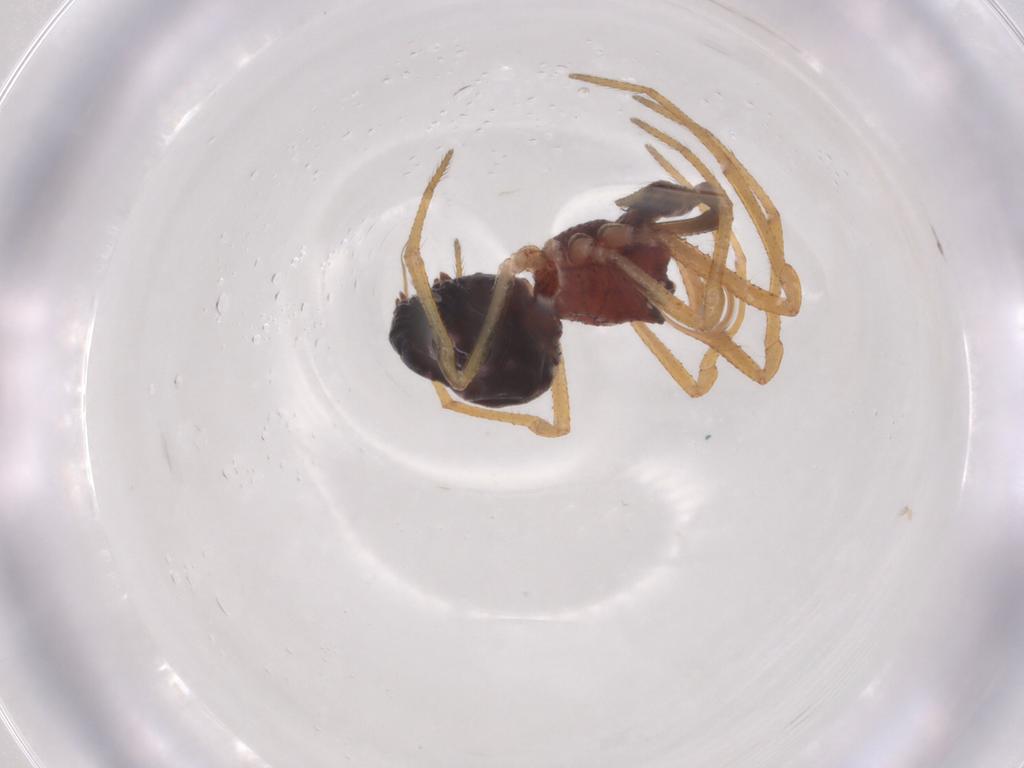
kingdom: Animalia
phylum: Arthropoda
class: Arachnida
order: Araneae
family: Theridiidae
